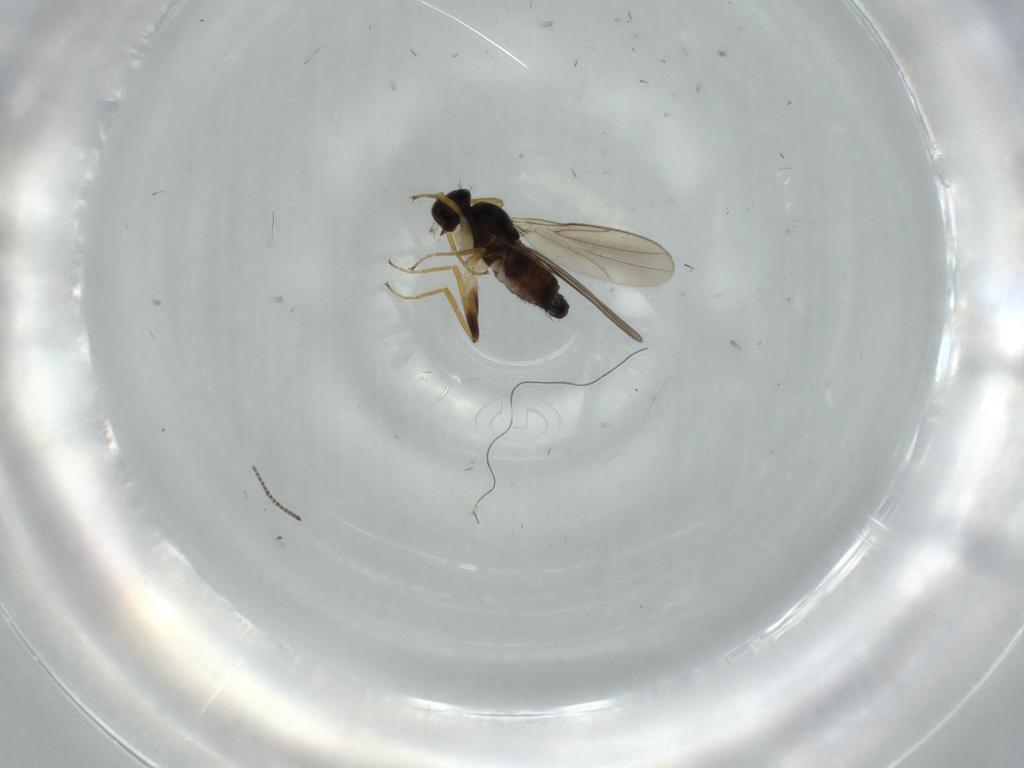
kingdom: Animalia
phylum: Arthropoda
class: Insecta
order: Diptera
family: Hybotidae
